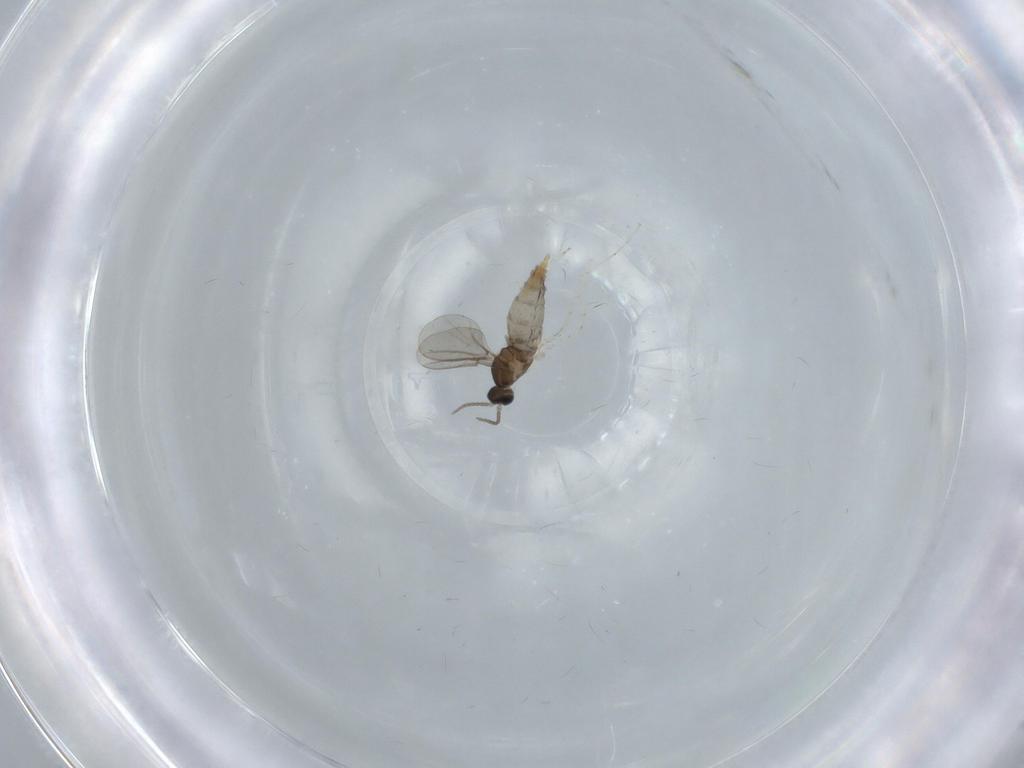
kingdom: Animalia
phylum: Arthropoda
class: Insecta
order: Diptera
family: Cecidomyiidae
